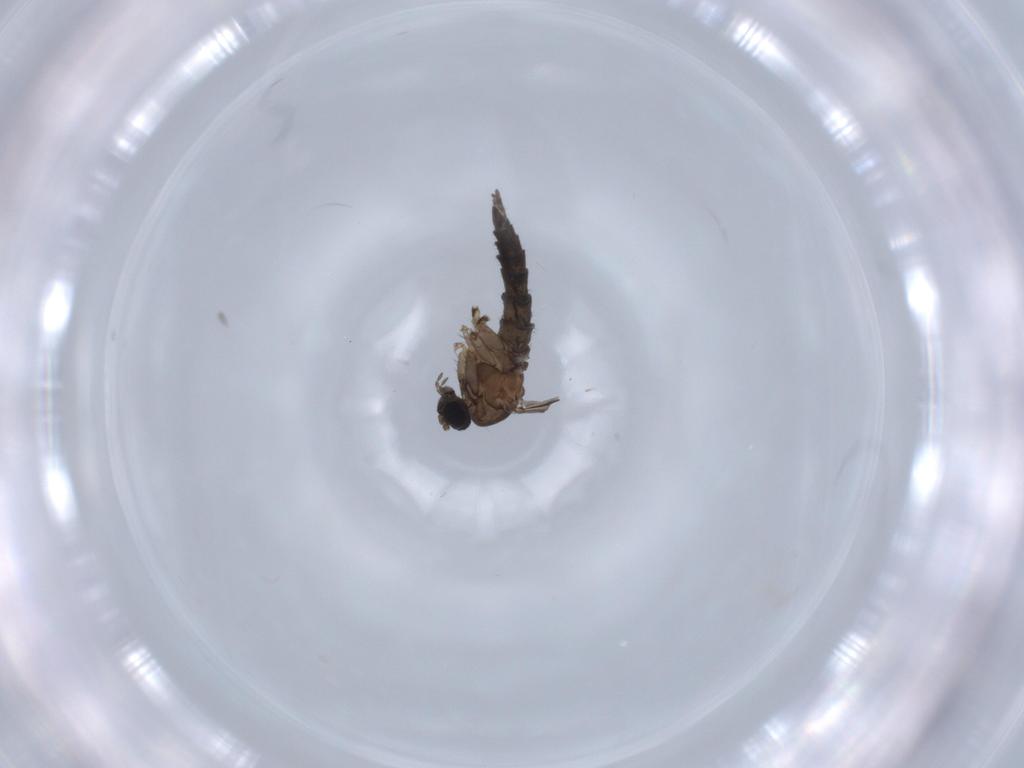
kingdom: Animalia
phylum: Arthropoda
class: Insecta
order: Diptera
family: Sciaridae
